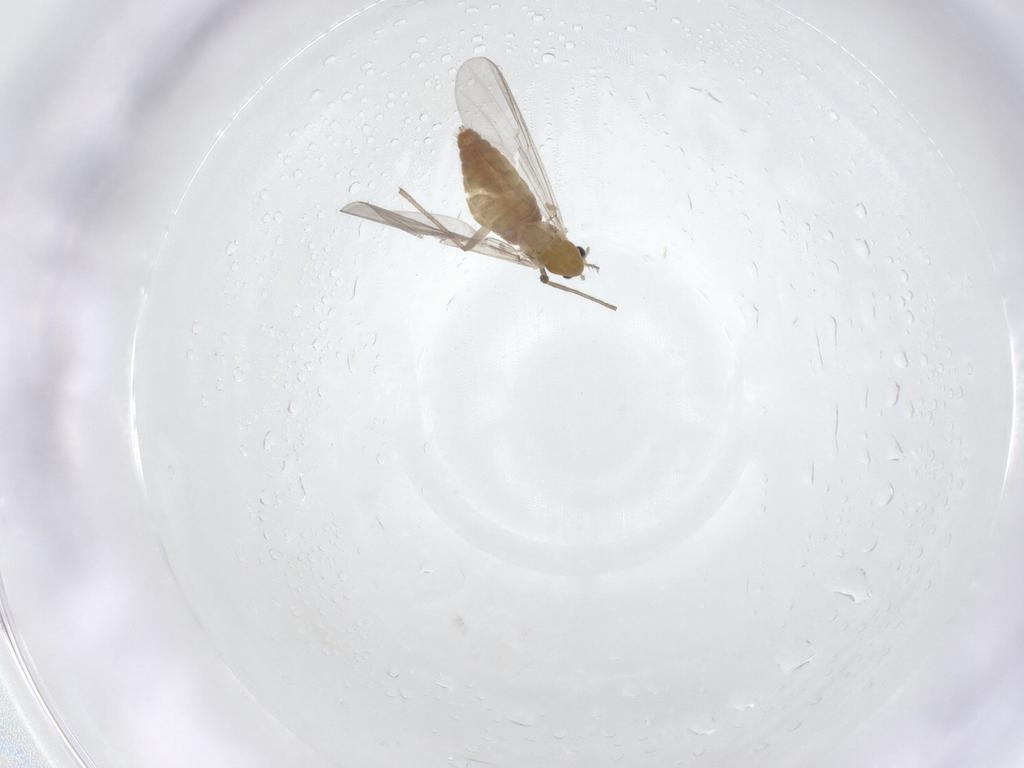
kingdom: Animalia
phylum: Arthropoda
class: Insecta
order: Diptera
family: Chironomidae
